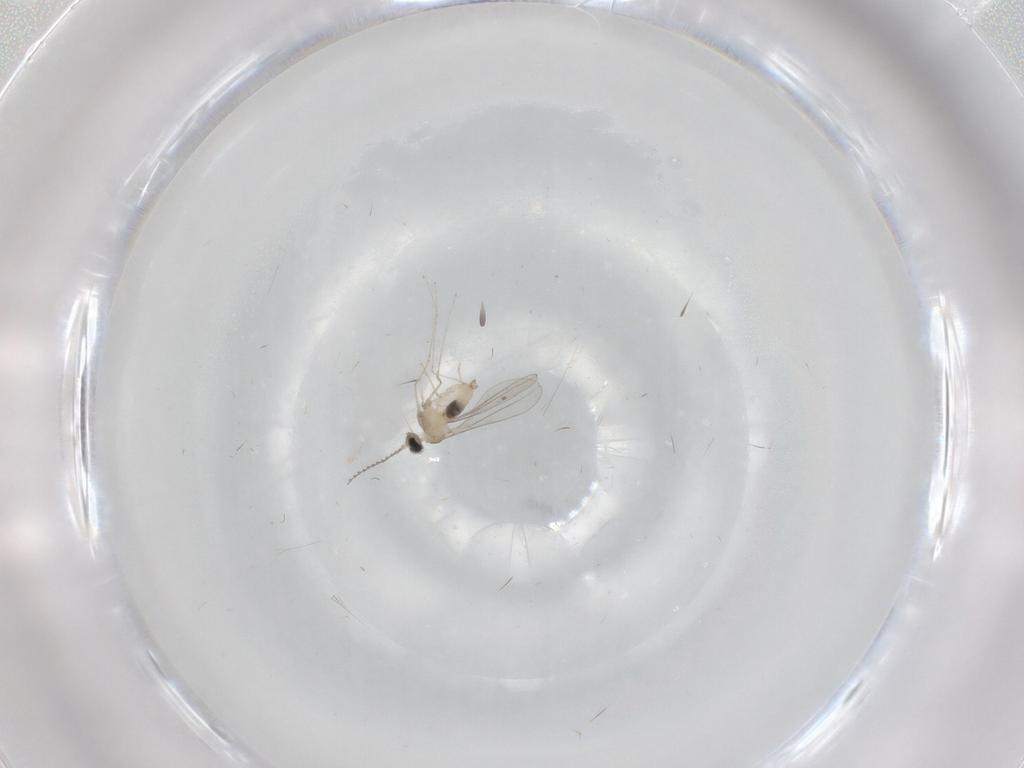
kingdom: Animalia
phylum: Arthropoda
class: Insecta
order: Diptera
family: Cecidomyiidae
